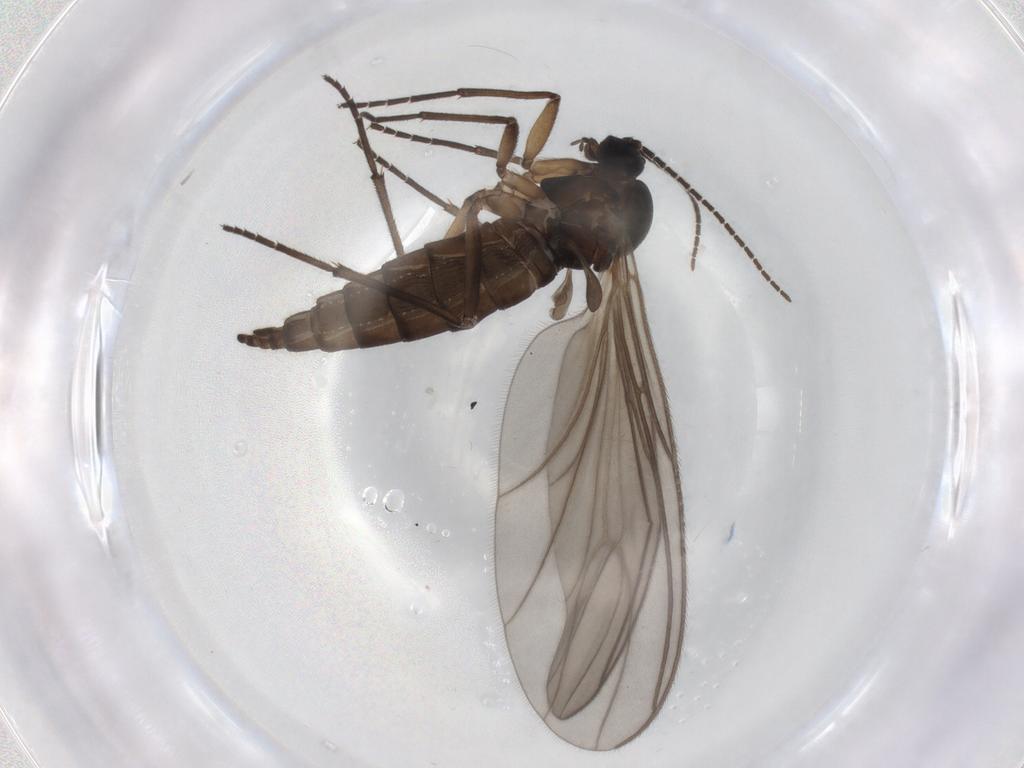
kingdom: Animalia
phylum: Arthropoda
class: Insecta
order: Diptera
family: Sciaridae
